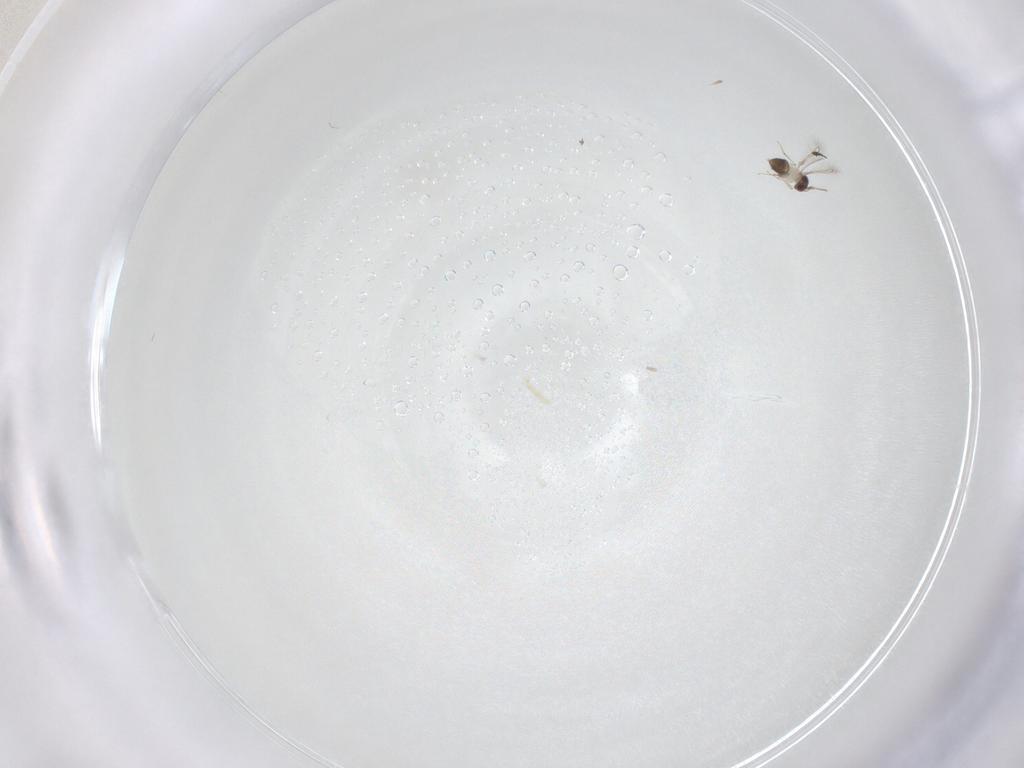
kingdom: Animalia
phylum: Arthropoda
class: Insecta
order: Hymenoptera
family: Mymaridae
